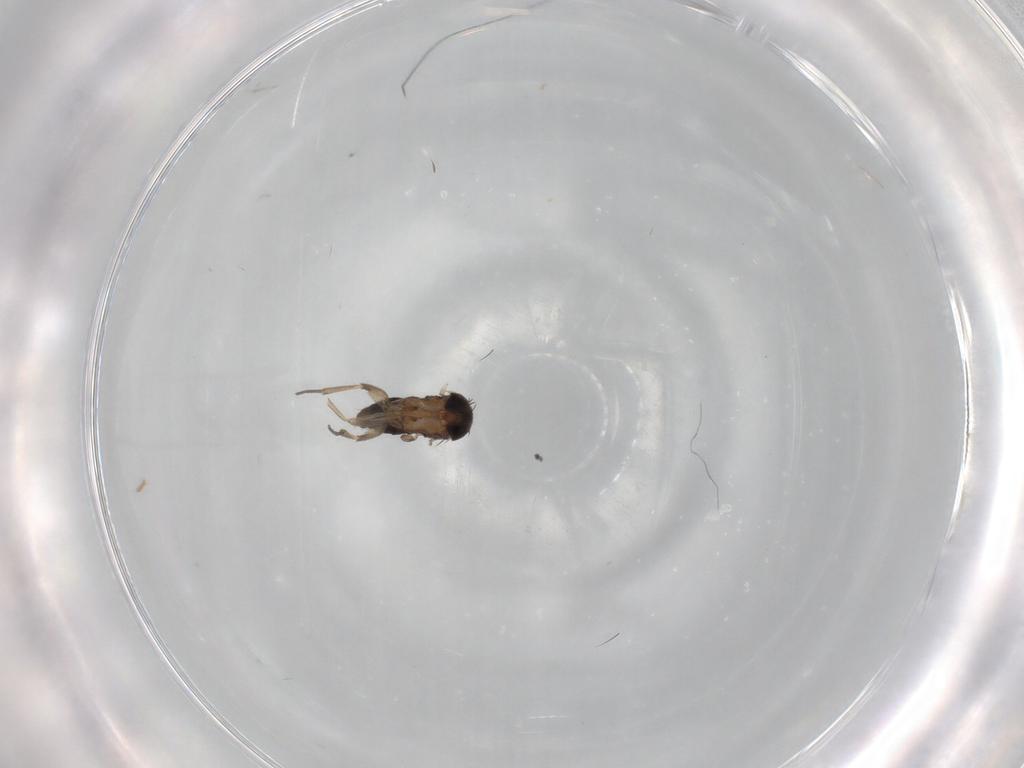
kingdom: Animalia
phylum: Arthropoda
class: Insecta
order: Diptera
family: Phoridae
